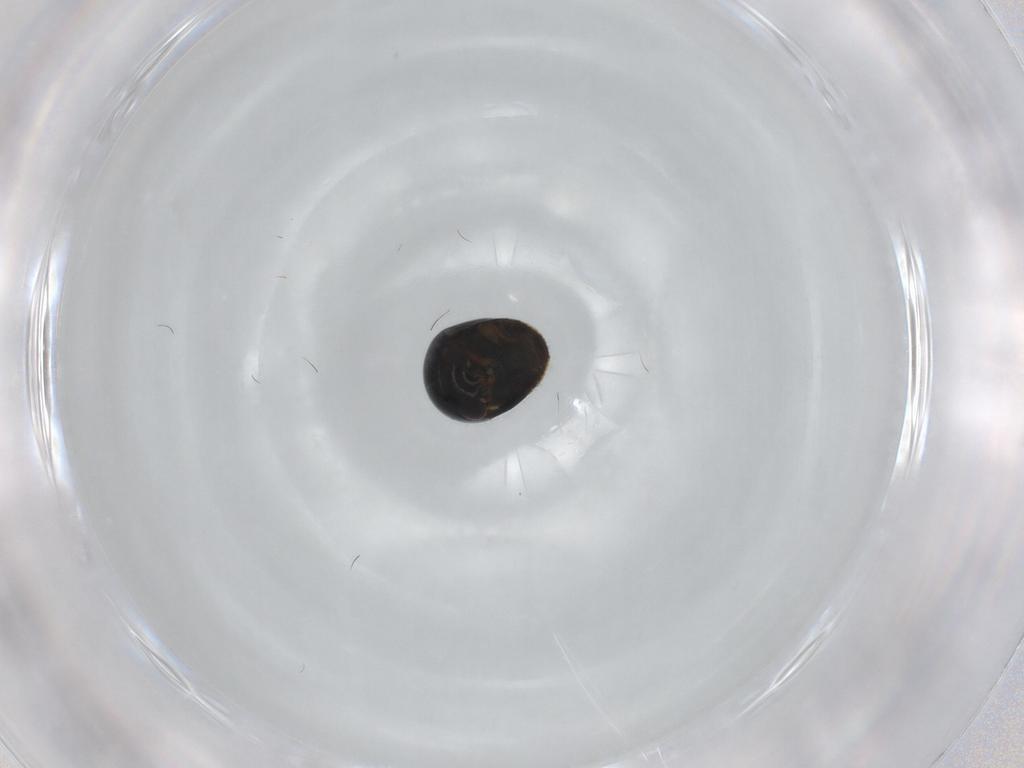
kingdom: Animalia
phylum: Arthropoda
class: Insecta
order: Coleoptera
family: Cybocephalidae
